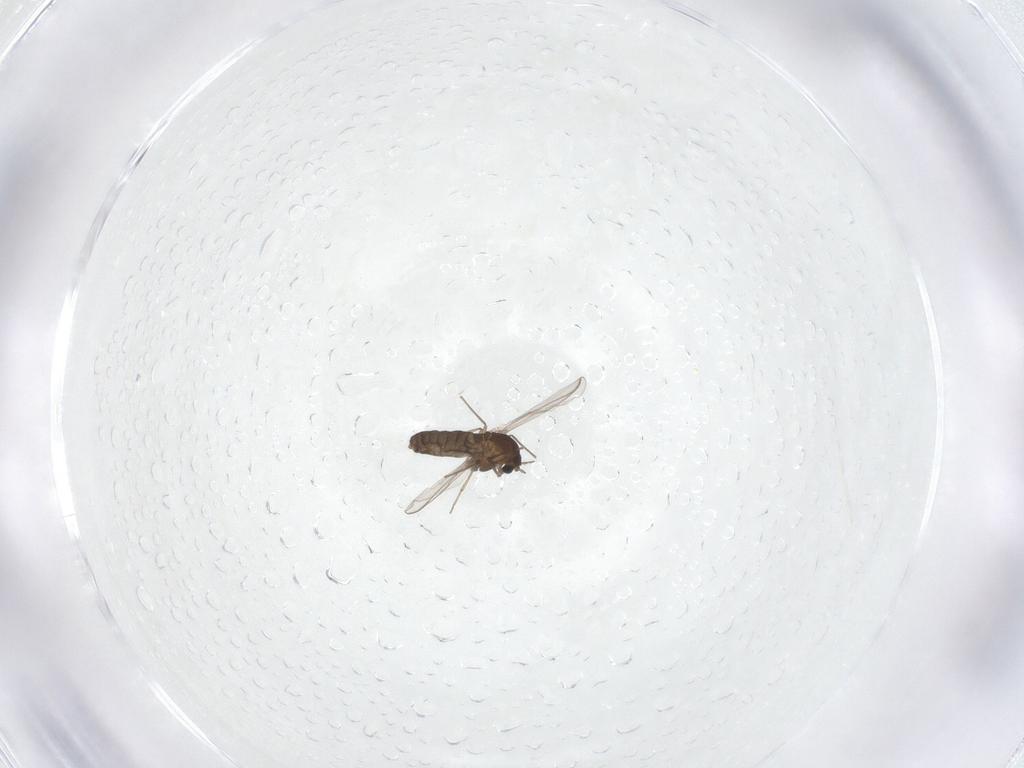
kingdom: Animalia
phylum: Arthropoda
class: Insecta
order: Diptera
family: Chironomidae
